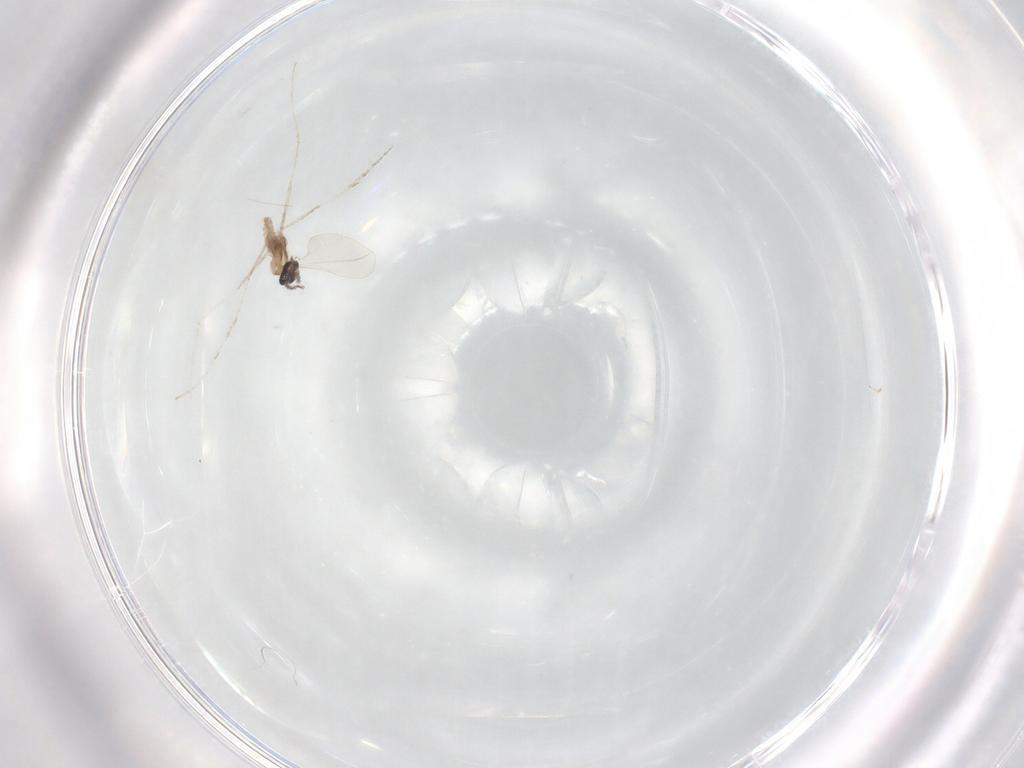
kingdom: Animalia
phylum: Arthropoda
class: Insecta
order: Diptera
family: Cecidomyiidae
